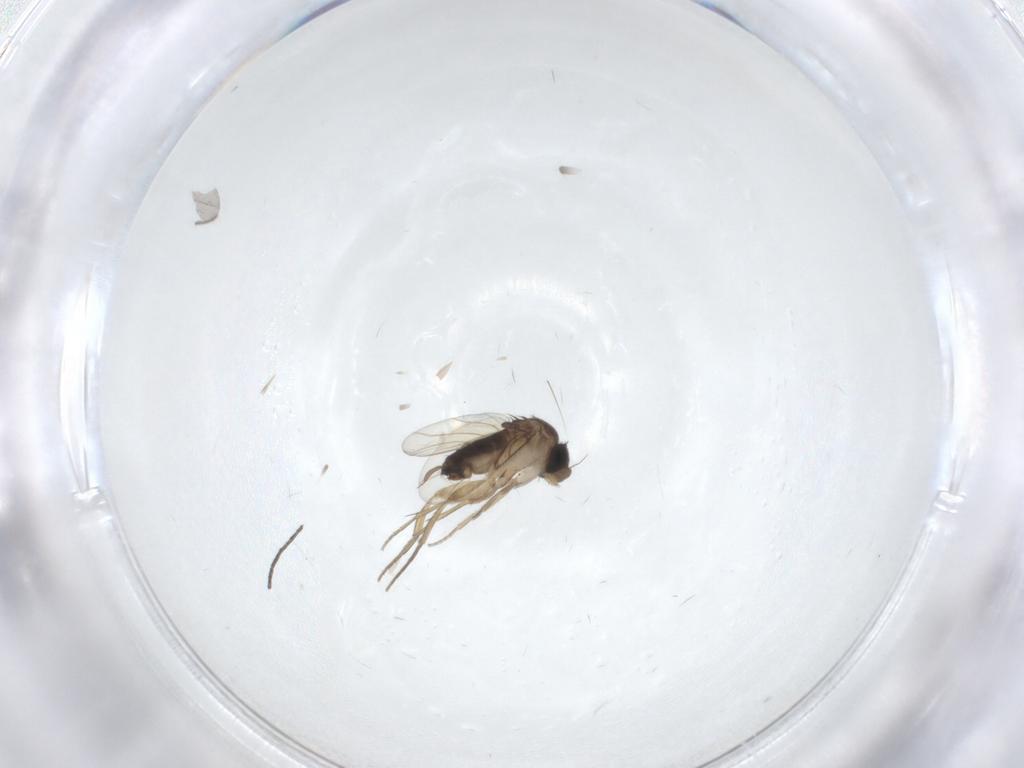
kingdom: Animalia
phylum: Arthropoda
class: Insecta
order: Diptera
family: Cecidomyiidae
